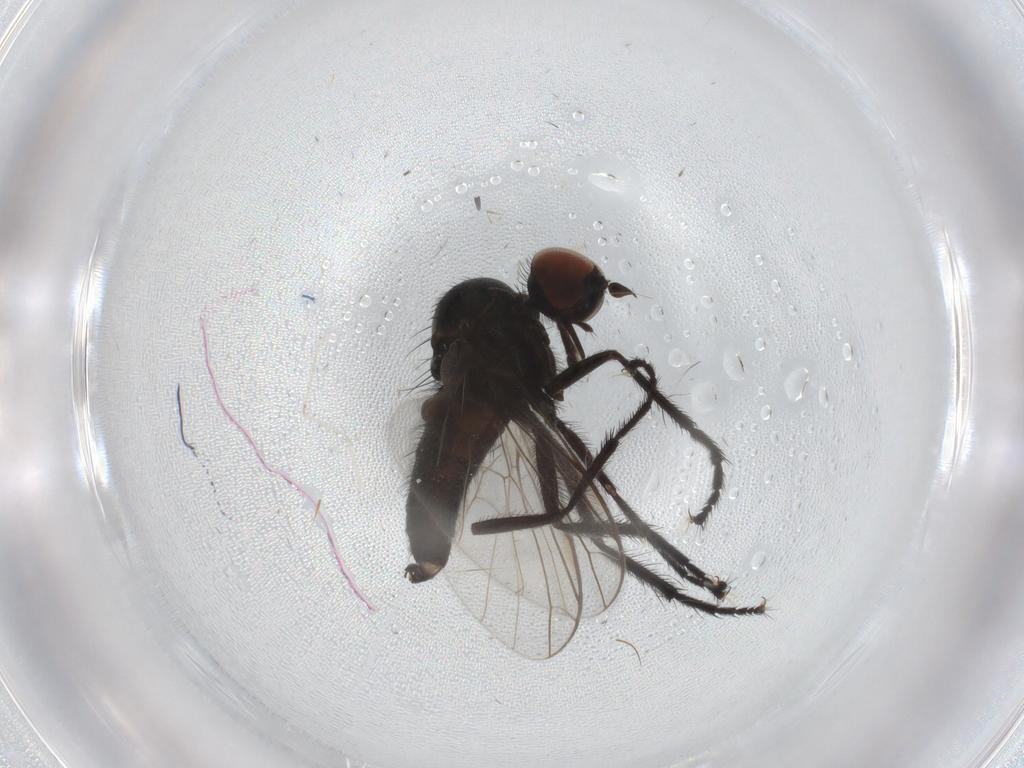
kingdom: Animalia
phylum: Arthropoda
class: Insecta
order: Diptera
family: Empididae
